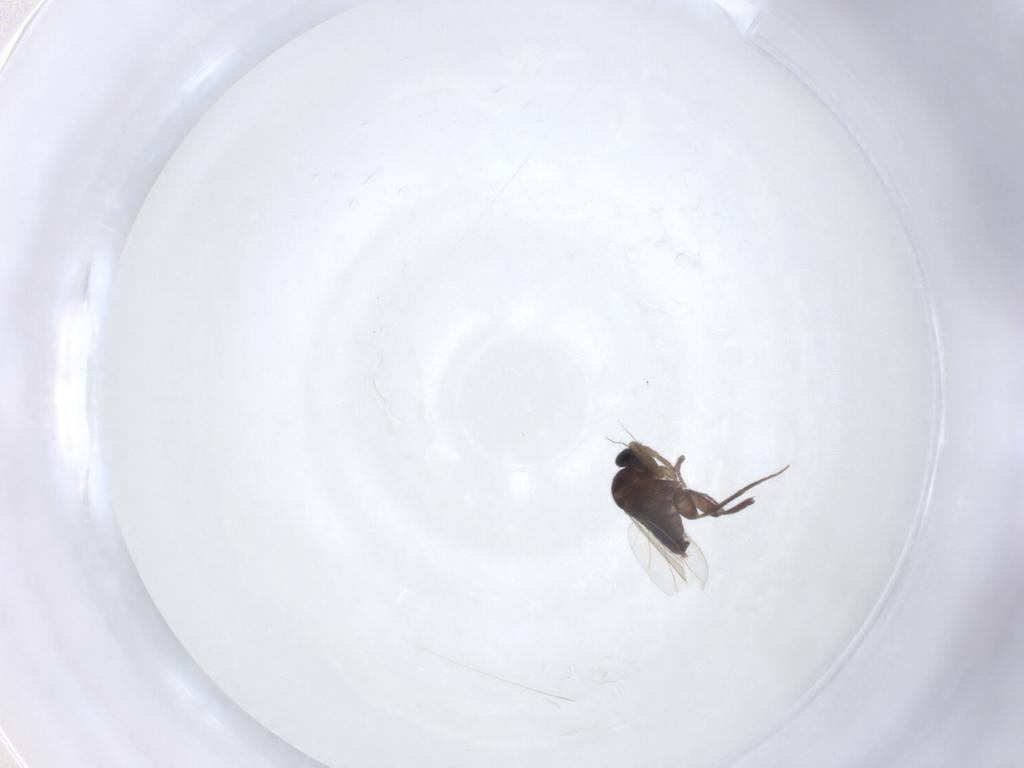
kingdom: Animalia
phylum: Arthropoda
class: Insecta
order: Diptera
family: Phoridae
